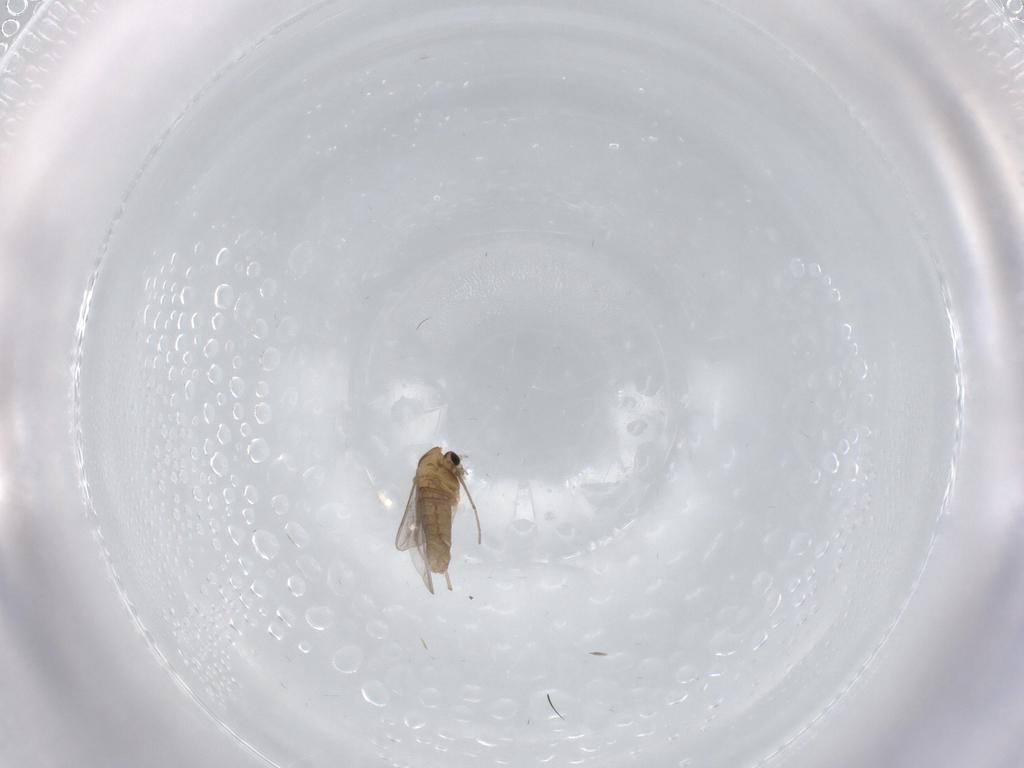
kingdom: Animalia
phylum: Arthropoda
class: Insecta
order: Diptera
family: Chironomidae
